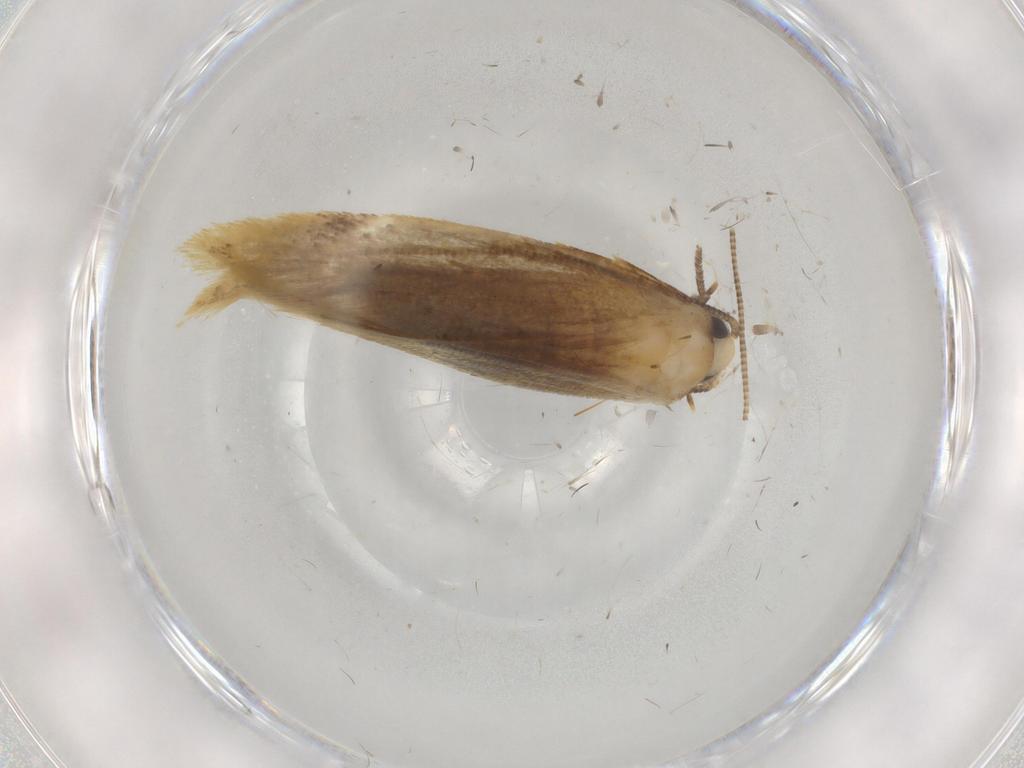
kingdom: Animalia
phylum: Arthropoda
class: Insecta
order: Lepidoptera
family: Tineidae
